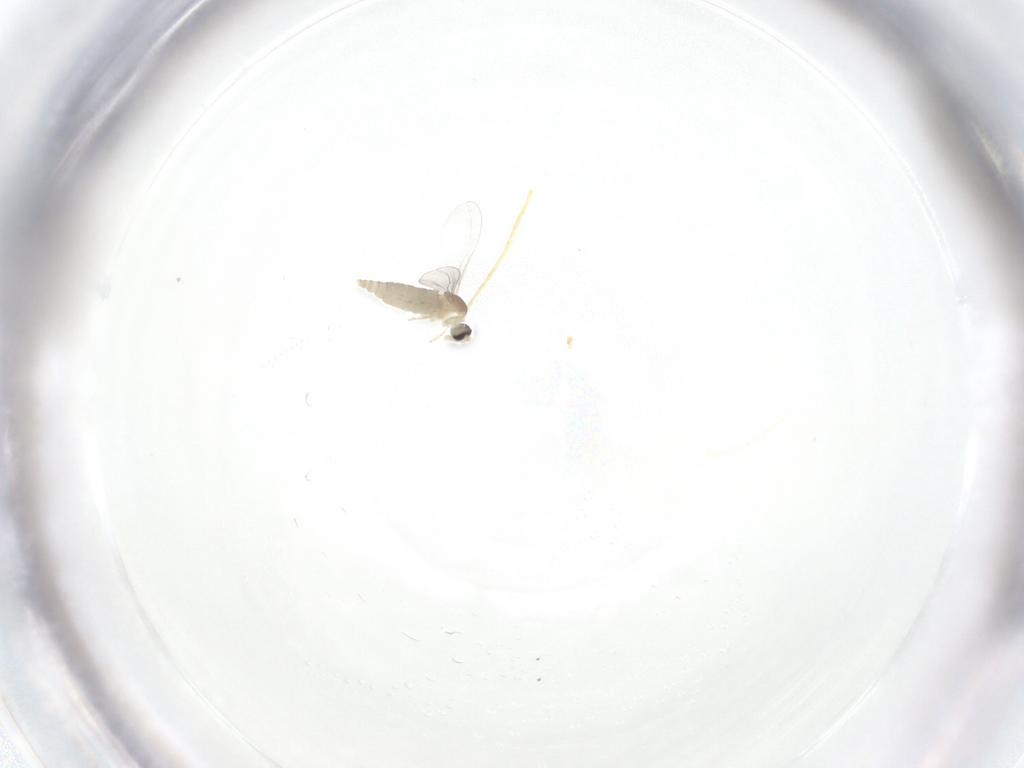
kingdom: Animalia
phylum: Arthropoda
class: Insecta
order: Diptera
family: Cecidomyiidae
